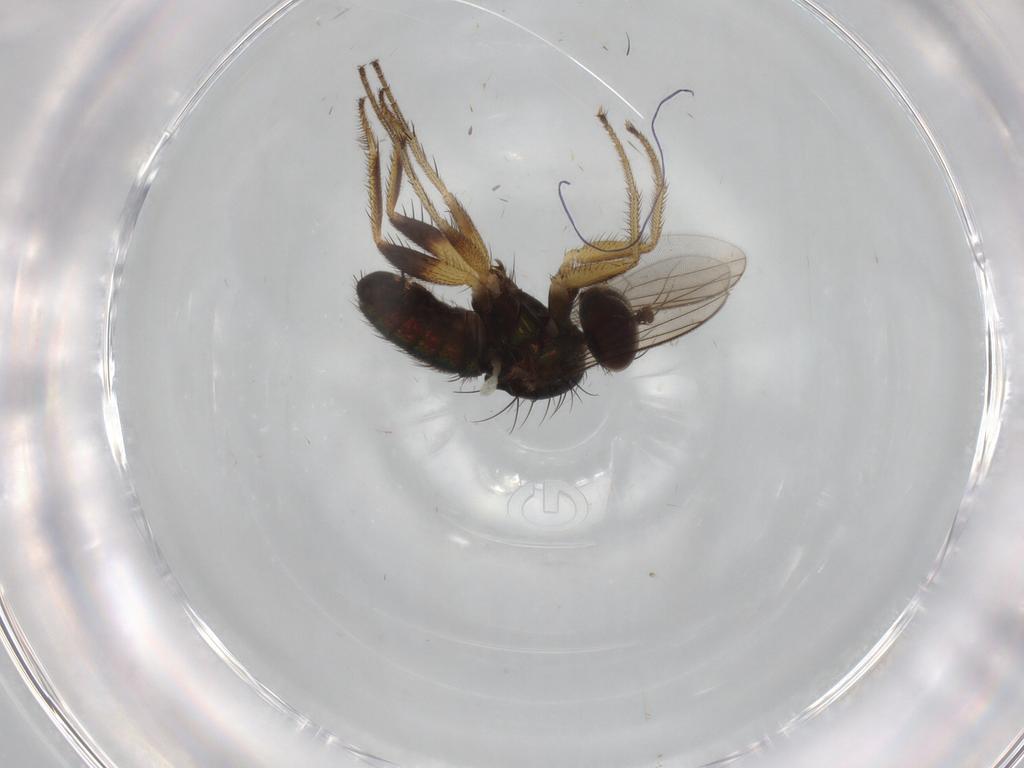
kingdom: Animalia
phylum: Arthropoda
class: Insecta
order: Diptera
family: Dolichopodidae
